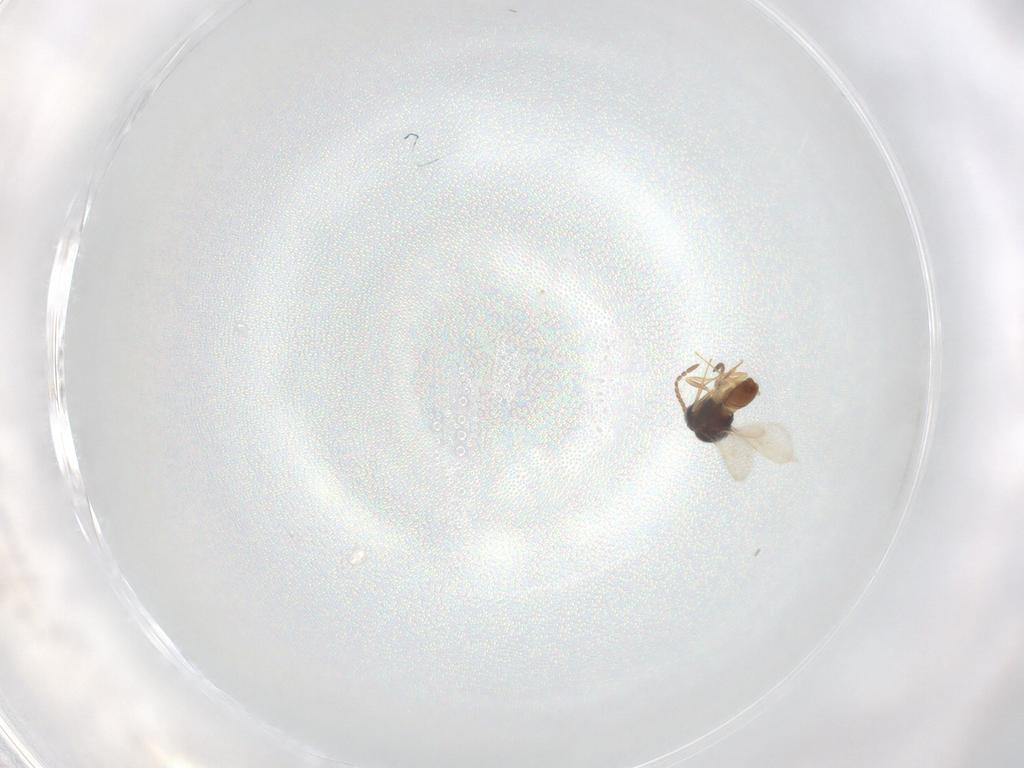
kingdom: Animalia
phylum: Arthropoda
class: Insecta
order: Hymenoptera
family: Scelionidae
